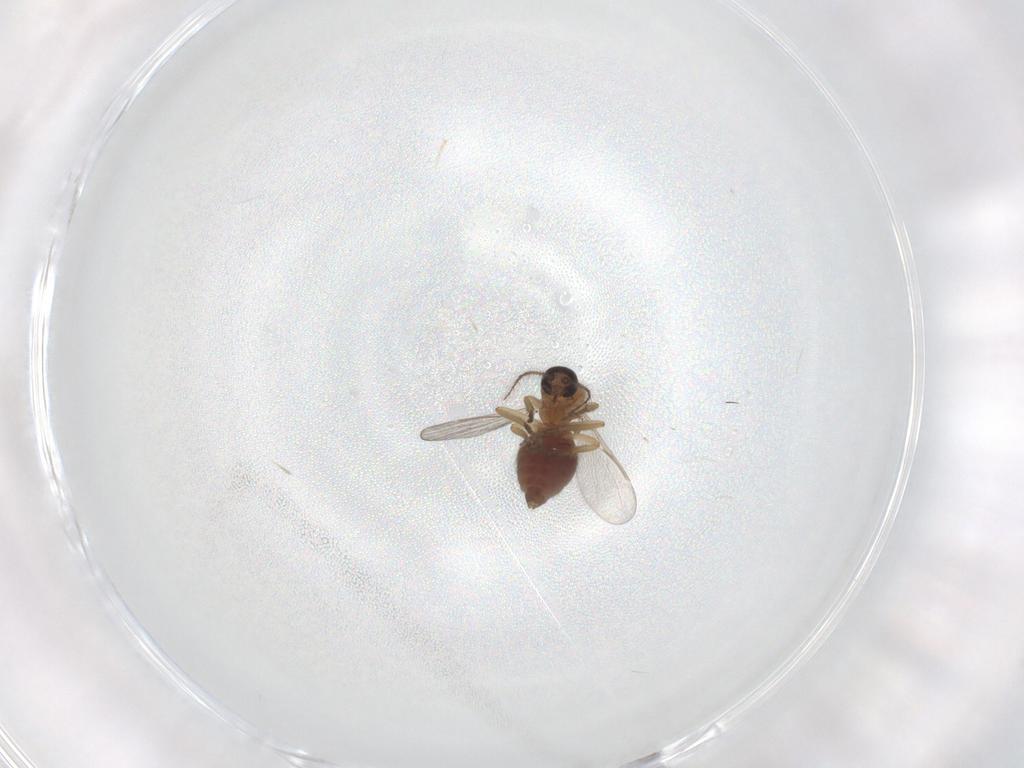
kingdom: Animalia
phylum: Arthropoda
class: Insecta
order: Diptera
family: Ceratopogonidae
